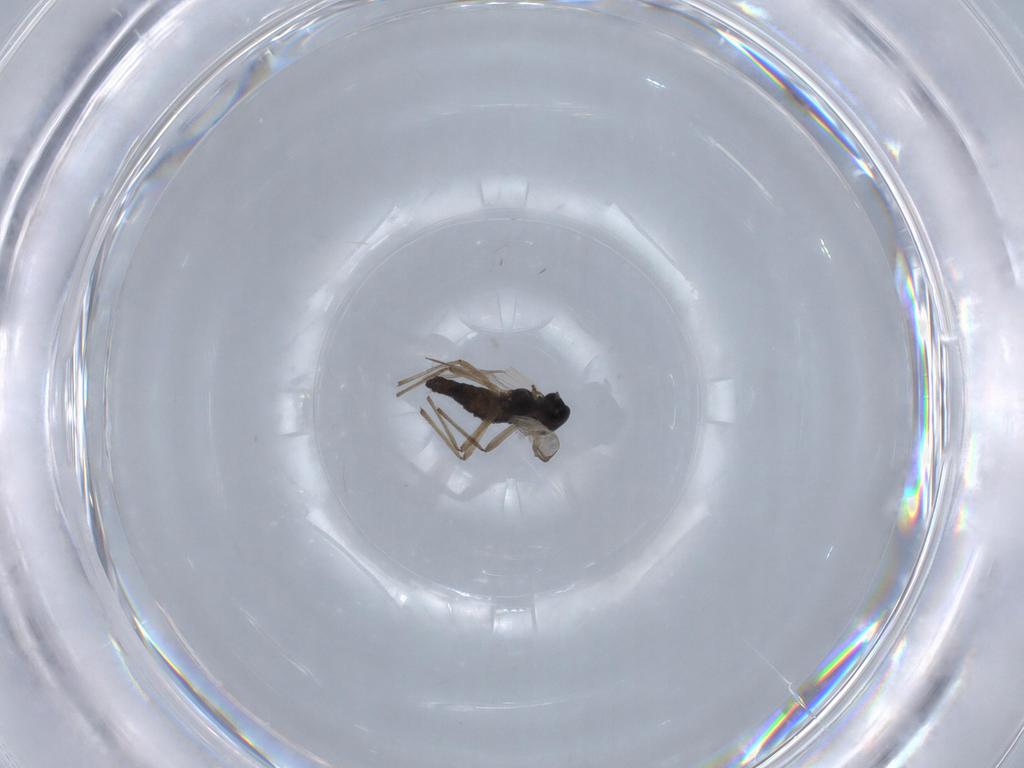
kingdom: Animalia
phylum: Arthropoda
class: Insecta
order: Diptera
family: Chironomidae
